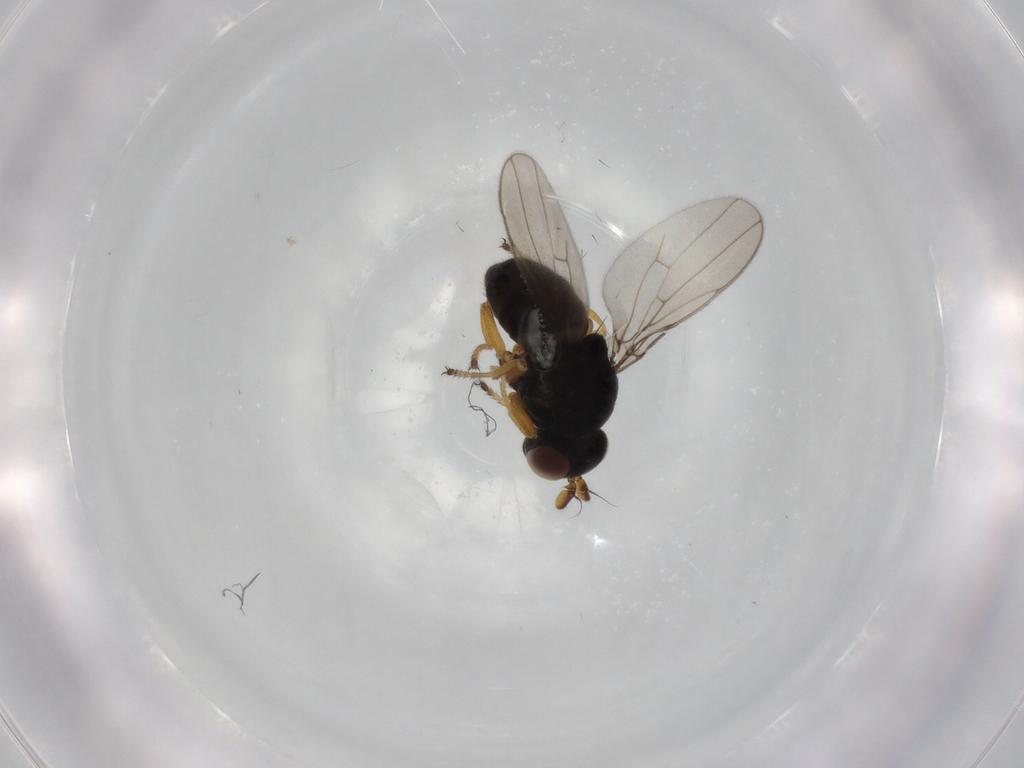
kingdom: Animalia
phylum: Arthropoda
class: Insecta
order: Diptera
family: Ephydridae
